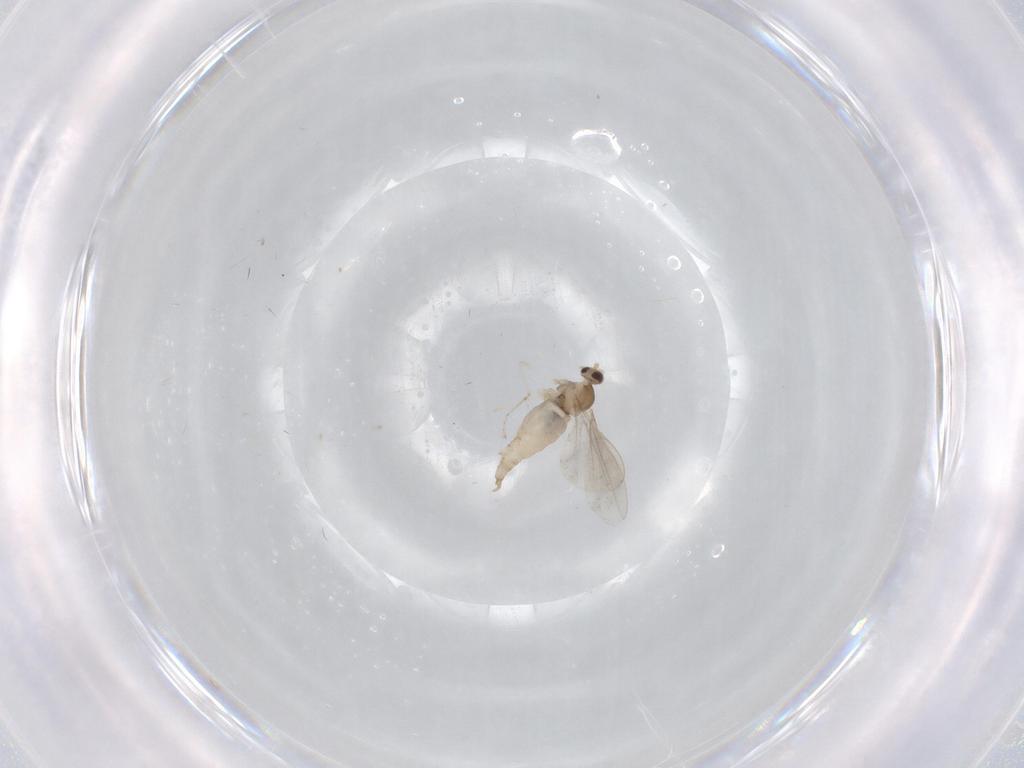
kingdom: Animalia
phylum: Arthropoda
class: Insecta
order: Diptera
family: Cecidomyiidae
